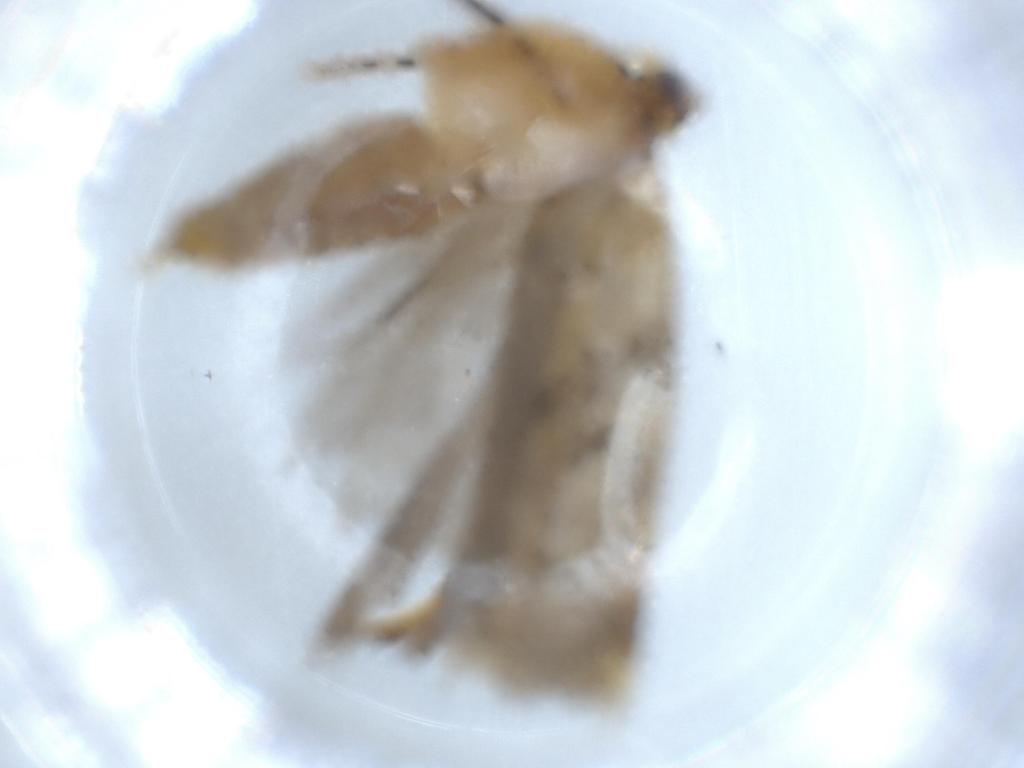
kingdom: Animalia
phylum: Arthropoda
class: Insecta
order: Lepidoptera
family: Gelechiidae
